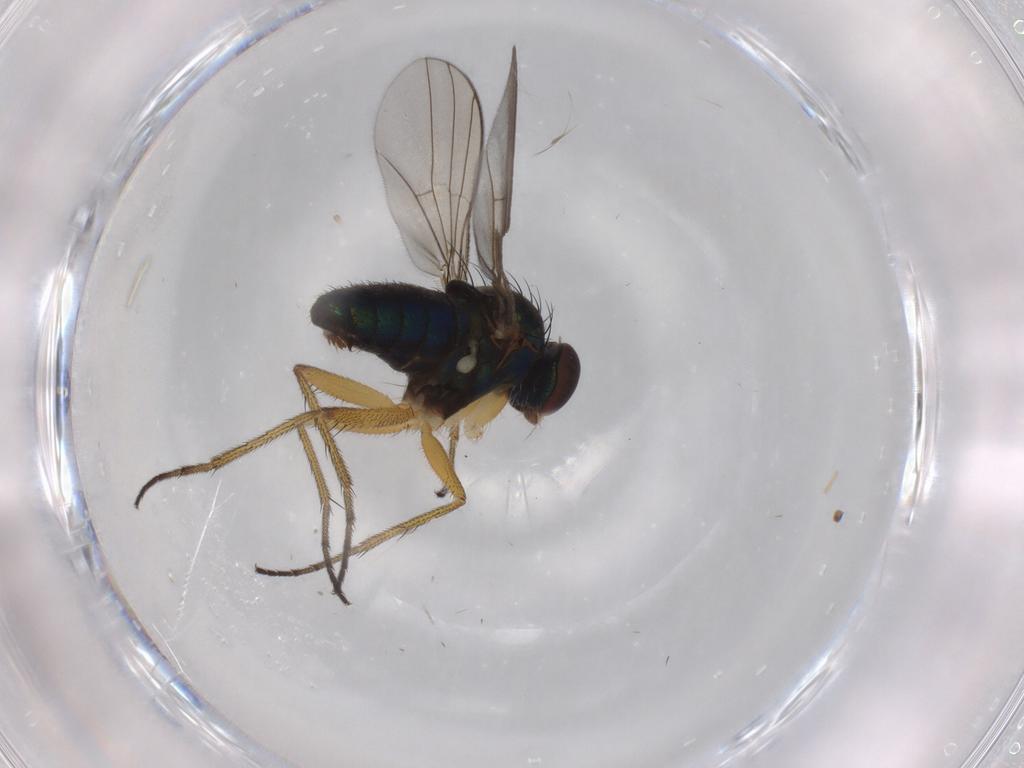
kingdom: Animalia
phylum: Arthropoda
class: Insecta
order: Diptera
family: Dolichopodidae
